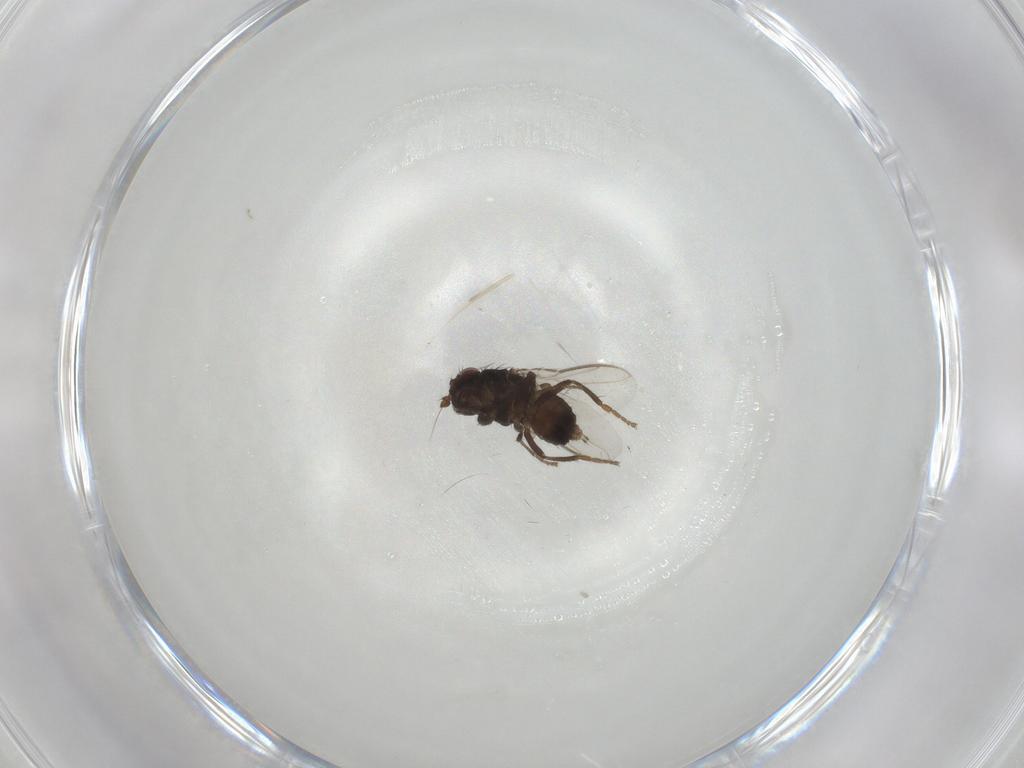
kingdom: Animalia
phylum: Arthropoda
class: Insecta
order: Diptera
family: Sphaeroceridae
